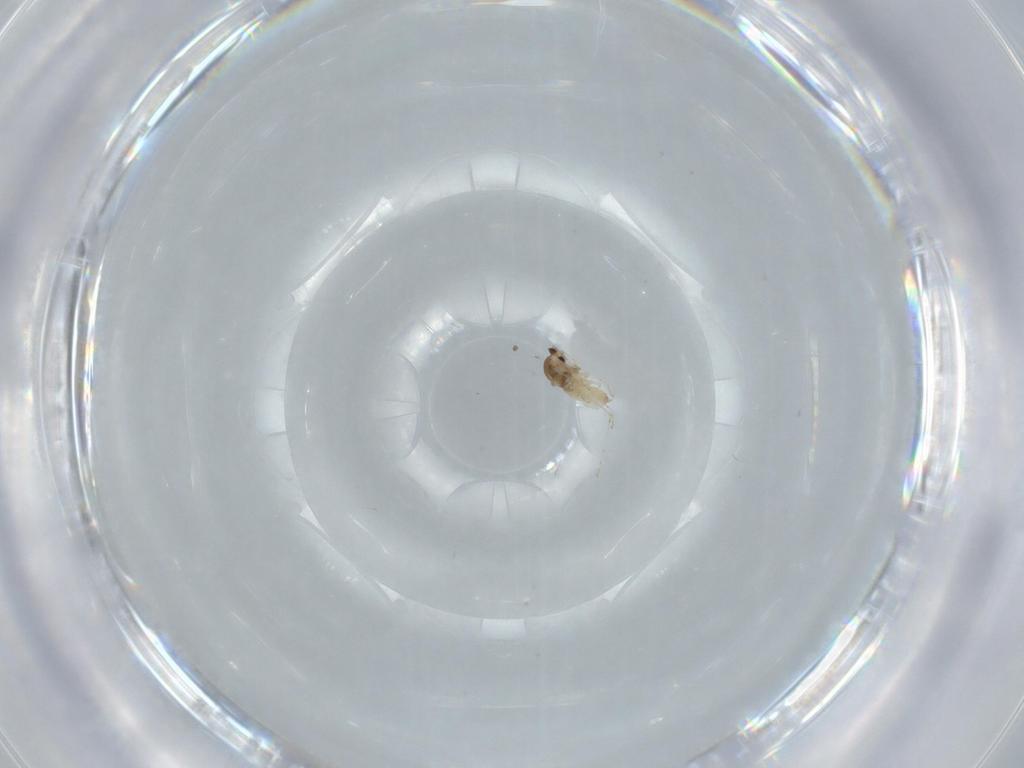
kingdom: Animalia
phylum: Arthropoda
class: Insecta
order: Diptera
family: Cecidomyiidae
